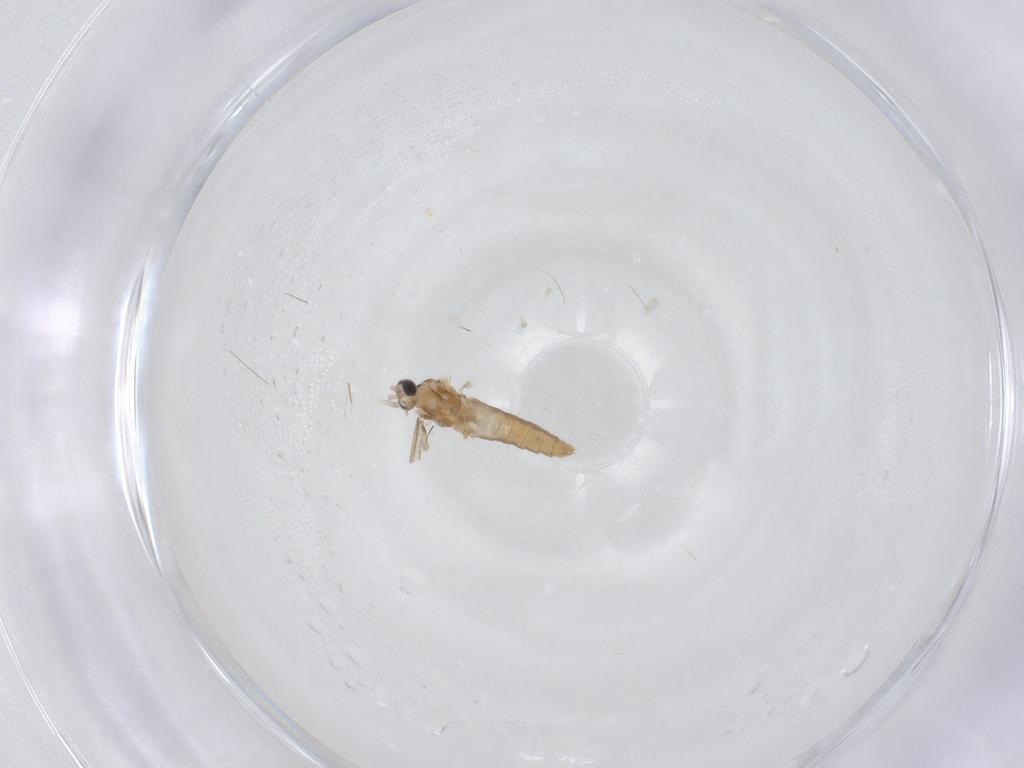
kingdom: Animalia
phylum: Arthropoda
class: Insecta
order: Diptera
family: Cecidomyiidae
